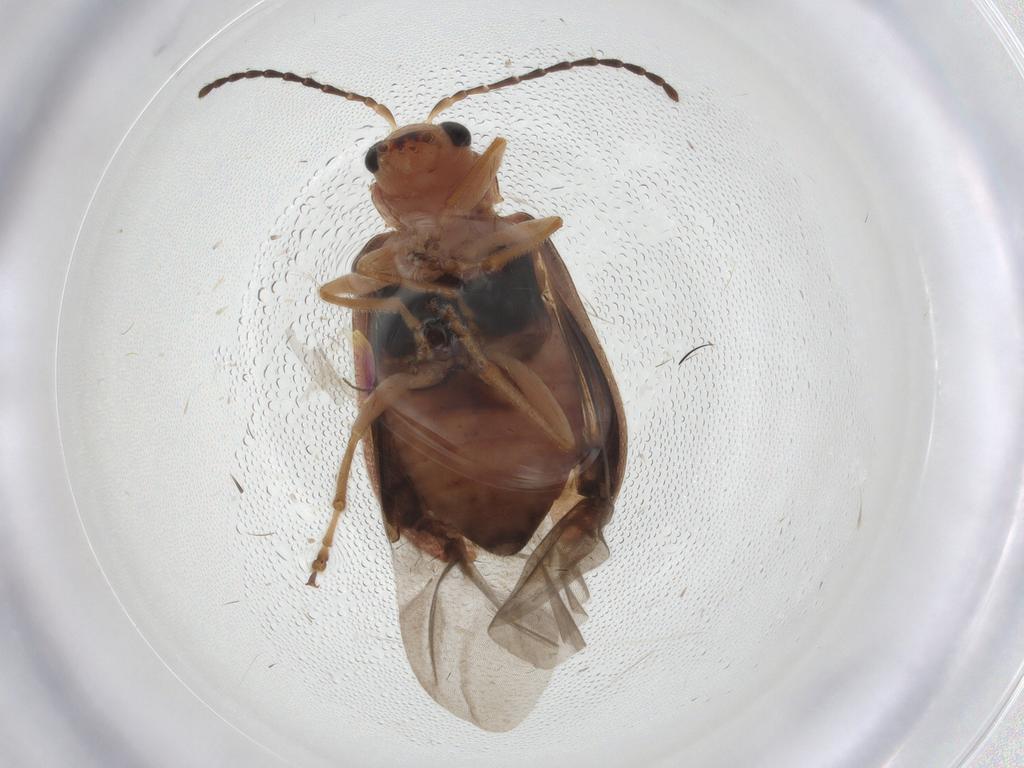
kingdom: Animalia
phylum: Arthropoda
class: Insecta
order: Coleoptera
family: Chrysomelidae
